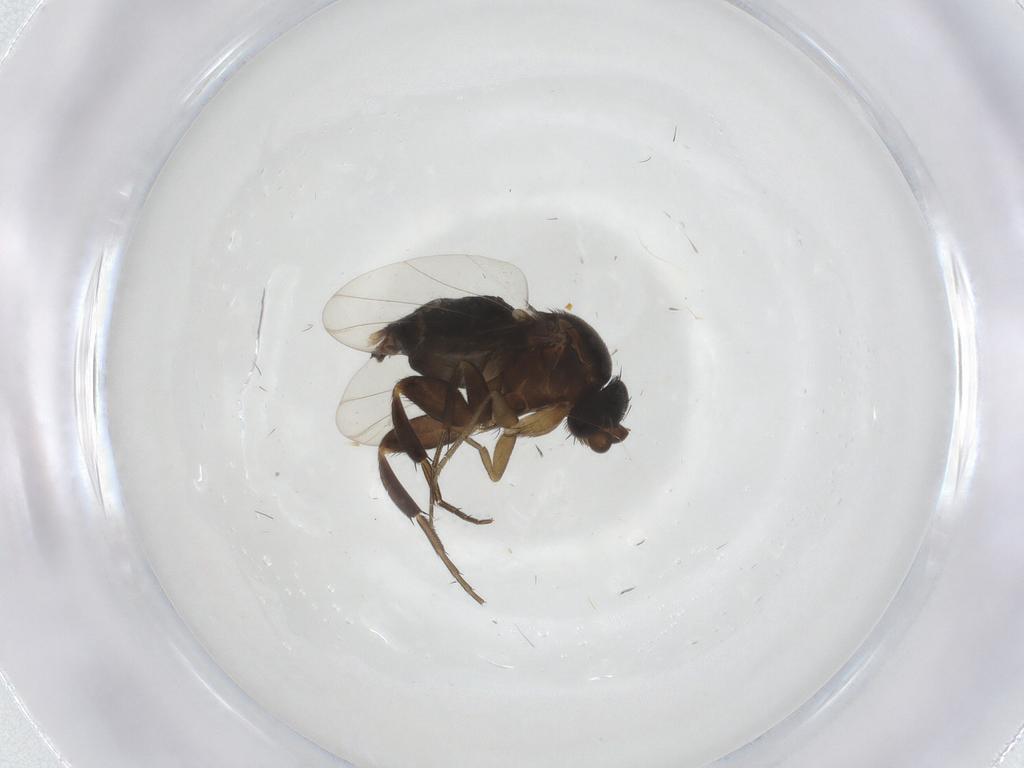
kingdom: Animalia
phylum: Arthropoda
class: Insecta
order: Diptera
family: Phoridae
